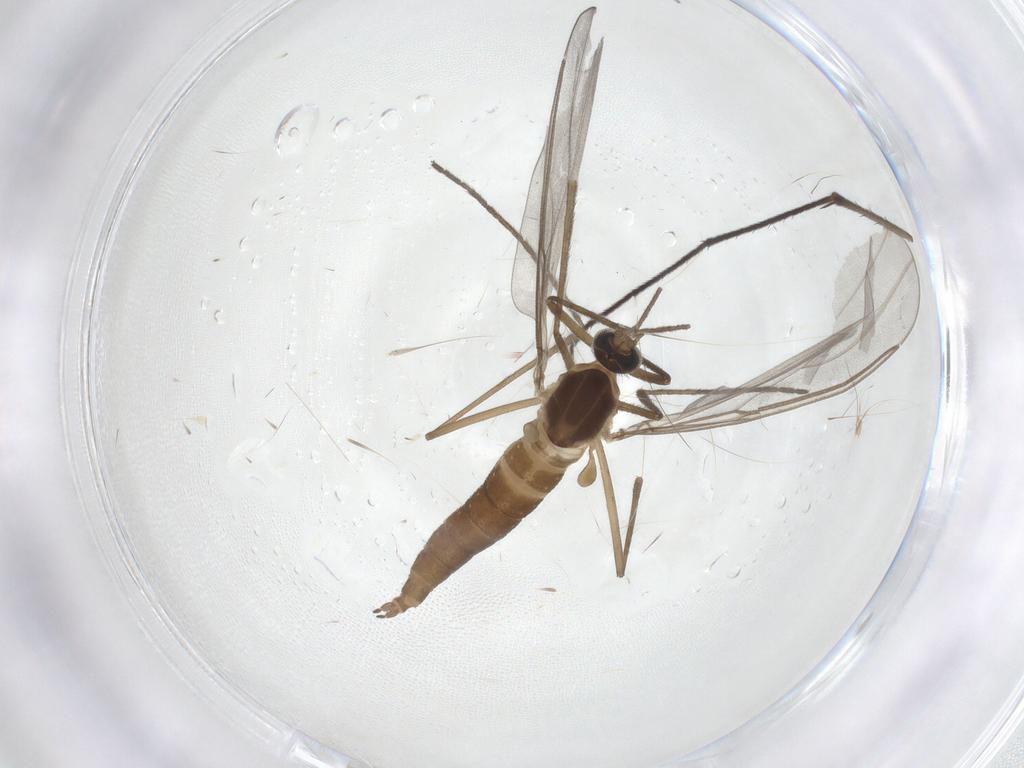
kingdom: Animalia
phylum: Arthropoda
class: Insecta
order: Diptera
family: Cecidomyiidae
